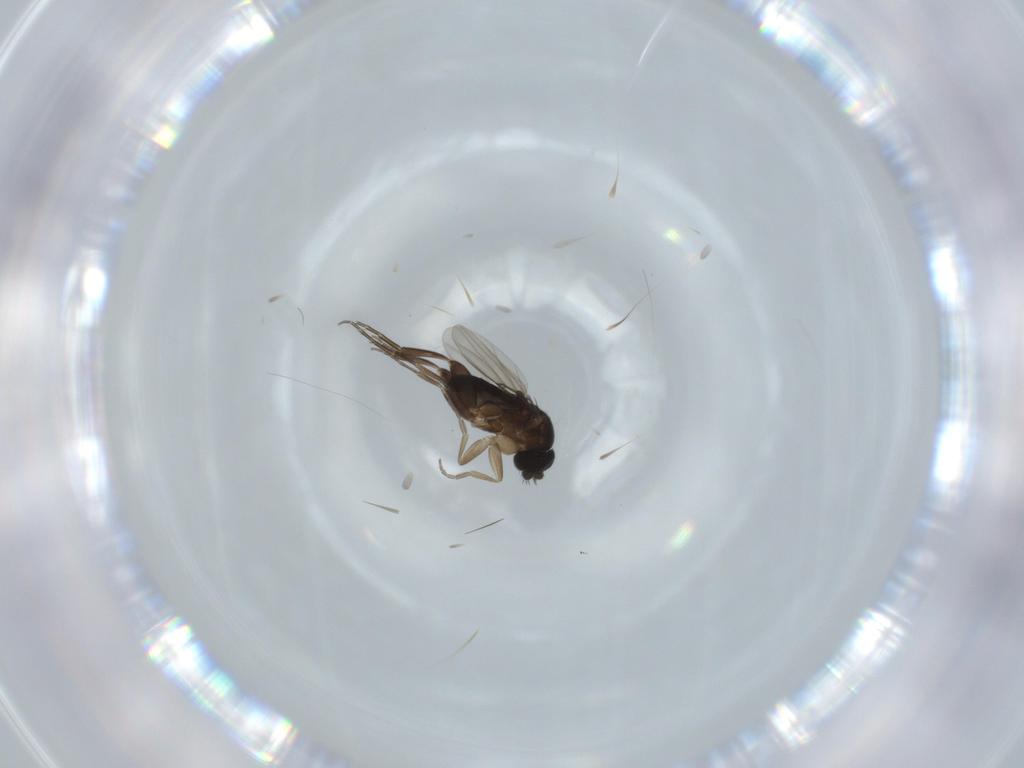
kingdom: Animalia
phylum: Arthropoda
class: Insecta
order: Diptera
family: Phoridae
